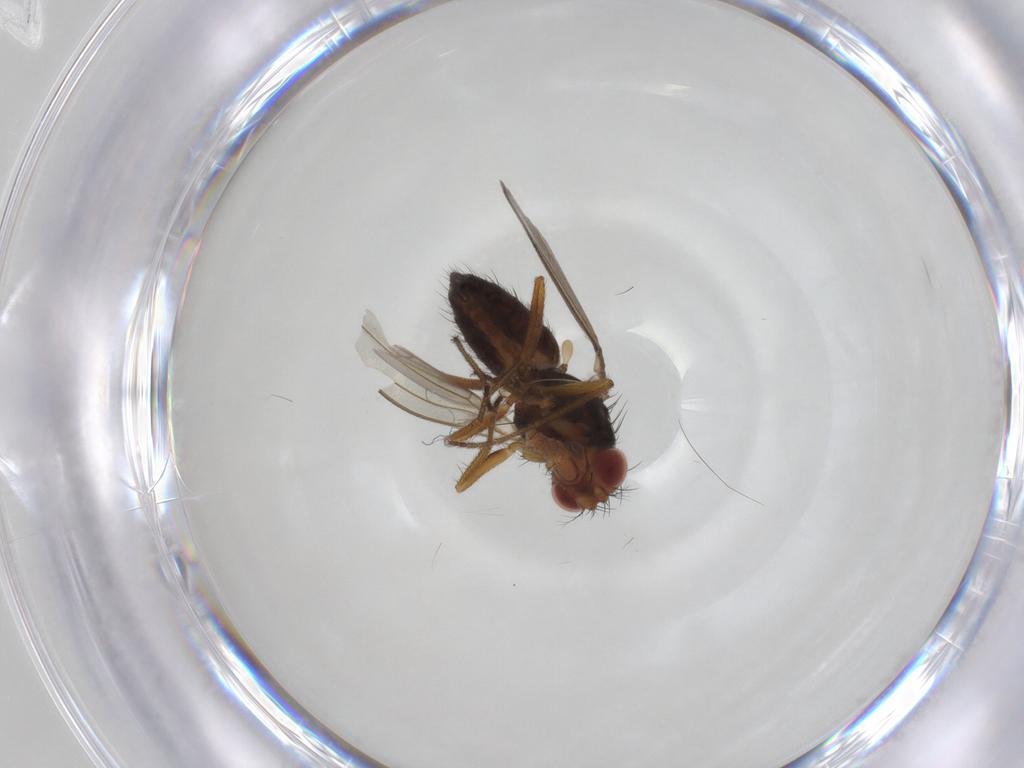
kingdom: Animalia
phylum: Arthropoda
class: Insecta
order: Diptera
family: Drosophilidae
